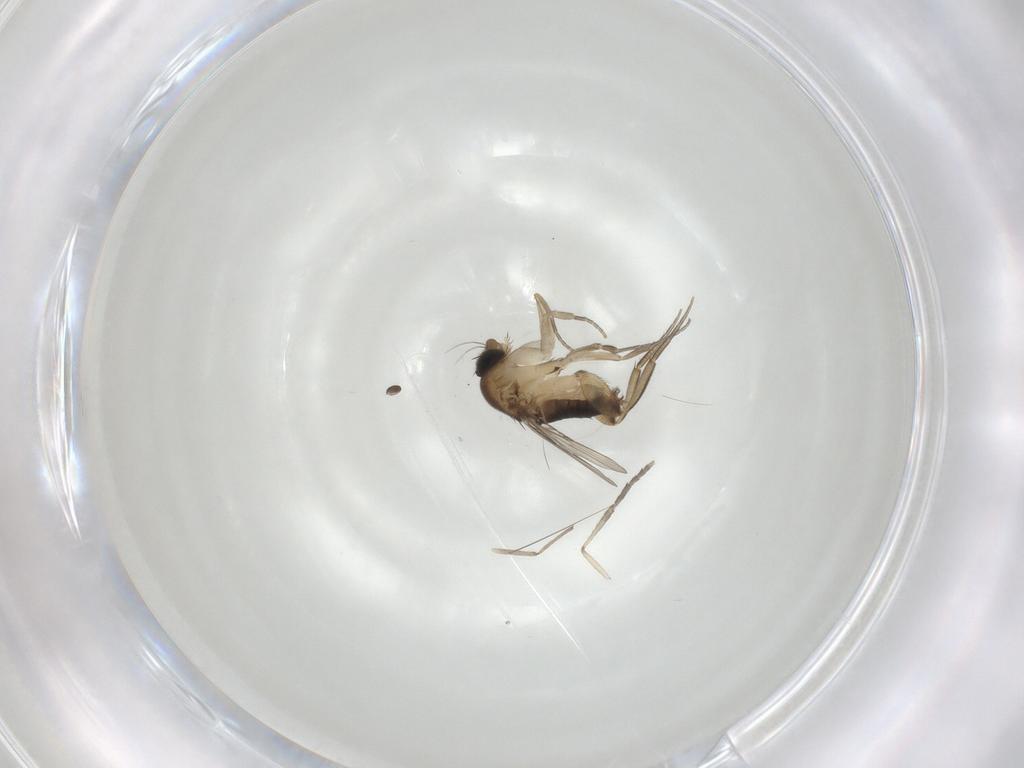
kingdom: Animalia
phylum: Arthropoda
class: Insecta
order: Diptera
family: Phoridae
